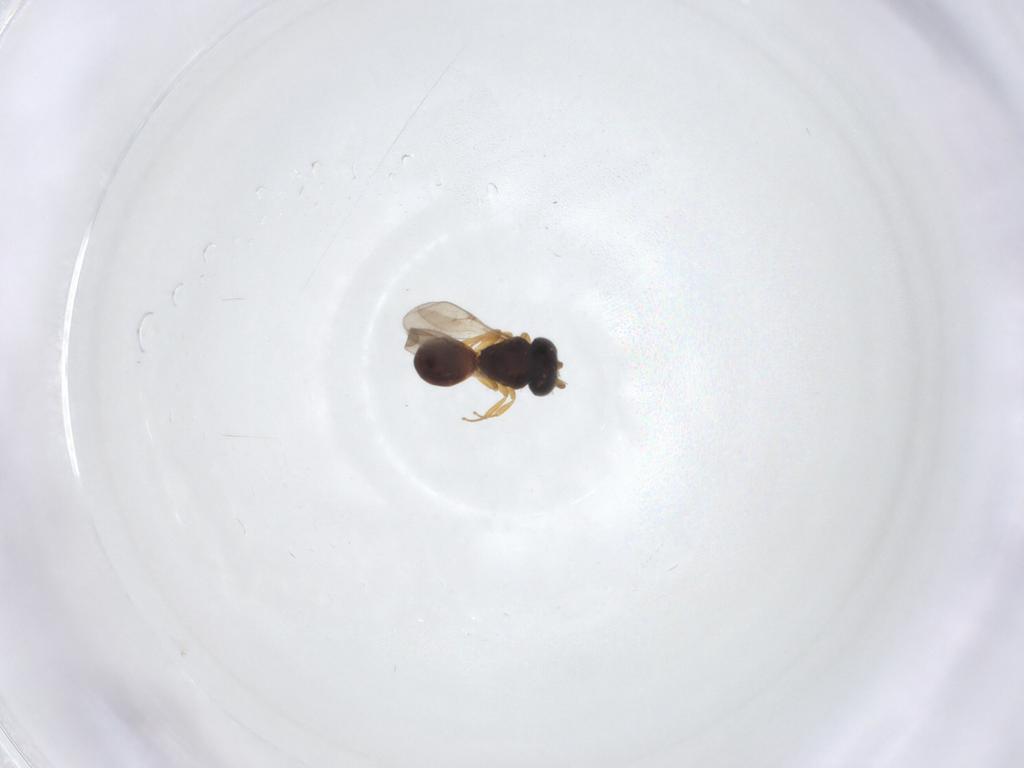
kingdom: Animalia
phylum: Arthropoda
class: Insecta
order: Hymenoptera
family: Scelionidae
